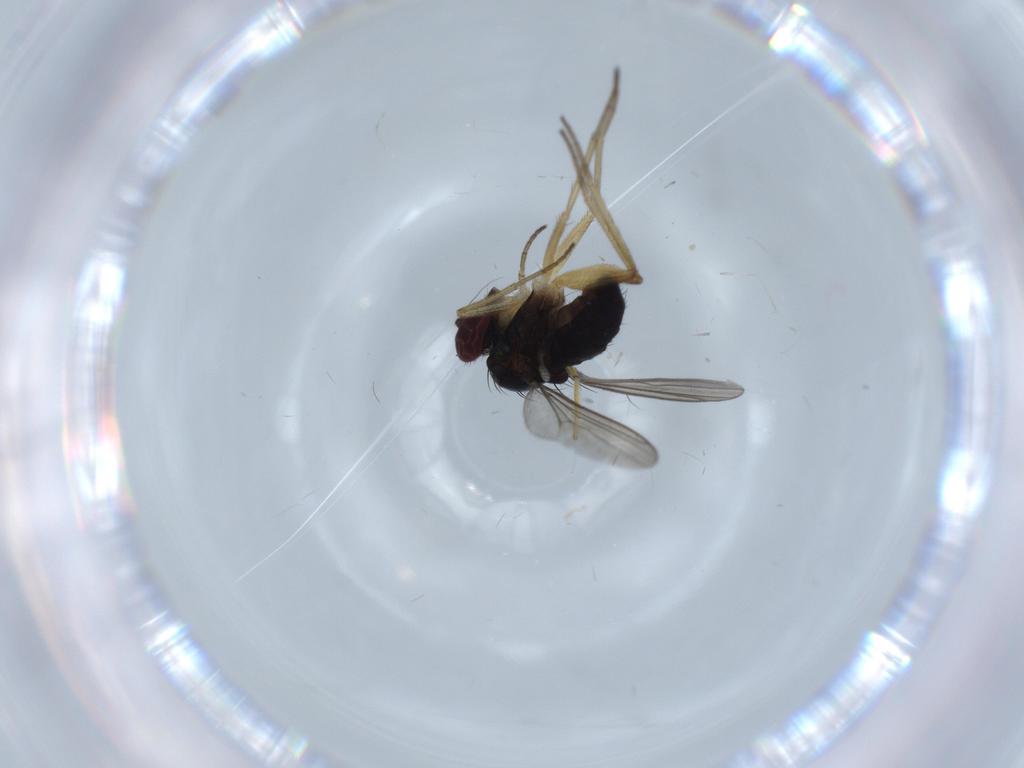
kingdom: Animalia
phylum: Arthropoda
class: Insecta
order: Diptera
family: Dolichopodidae
